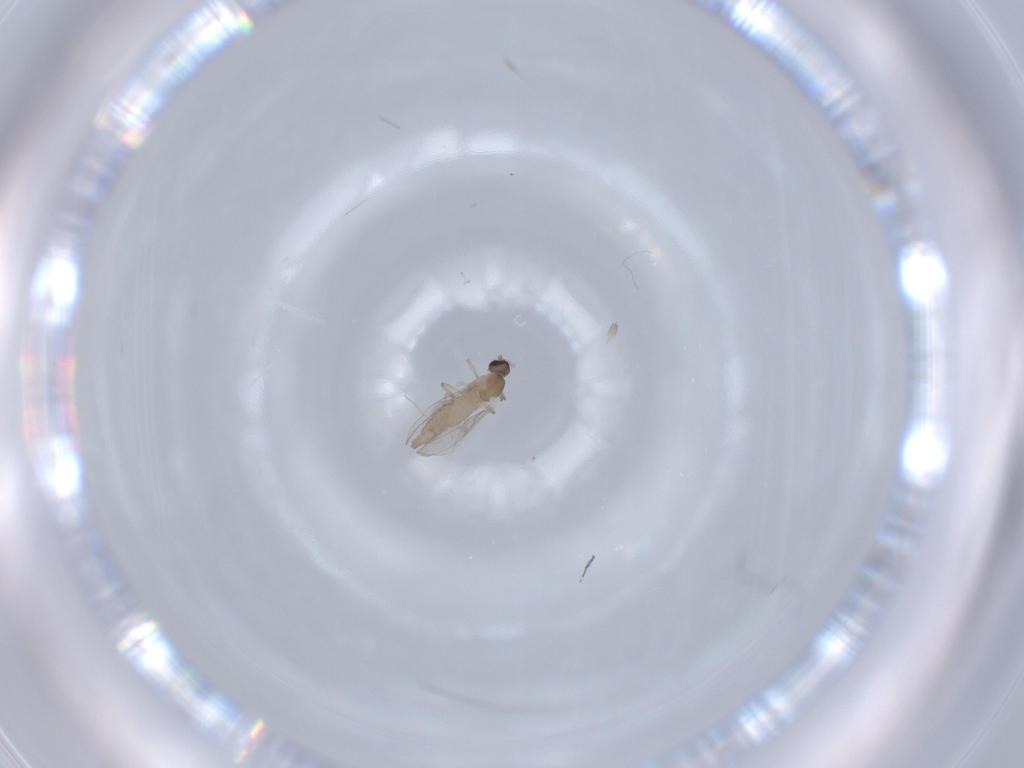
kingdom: Animalia
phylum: Arthropoda
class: Insecta
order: Diptera
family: Cecidomyiidae
